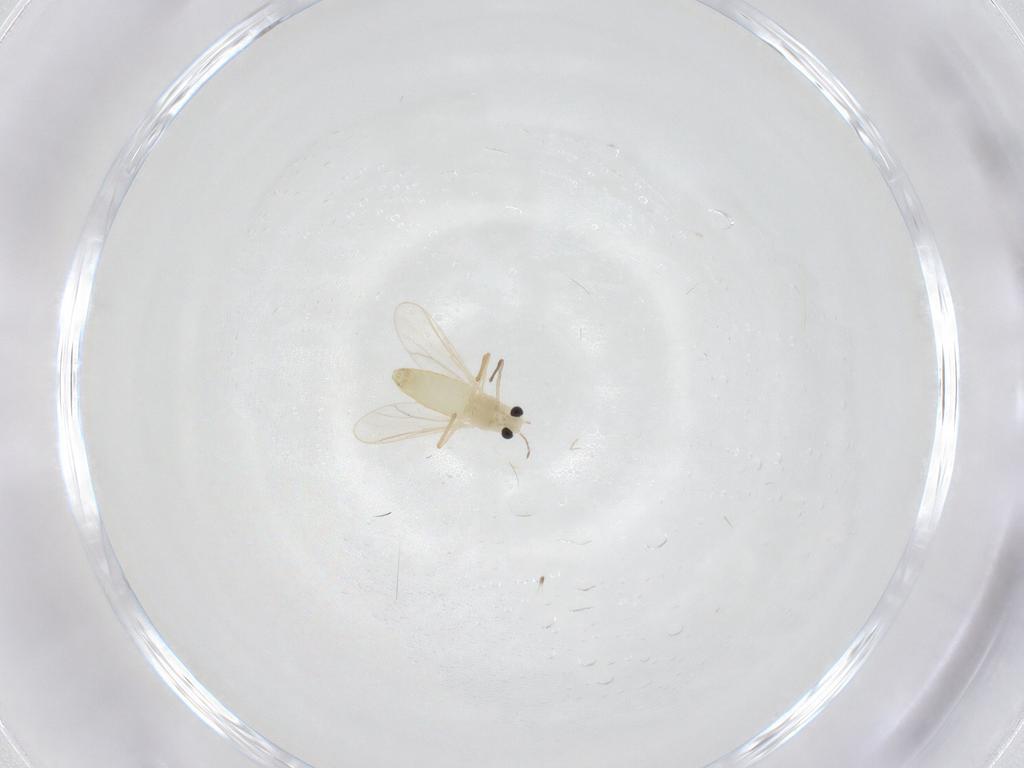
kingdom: Animalia
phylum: Arthropoda
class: Insecta
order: Diptera
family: Chironomidae
